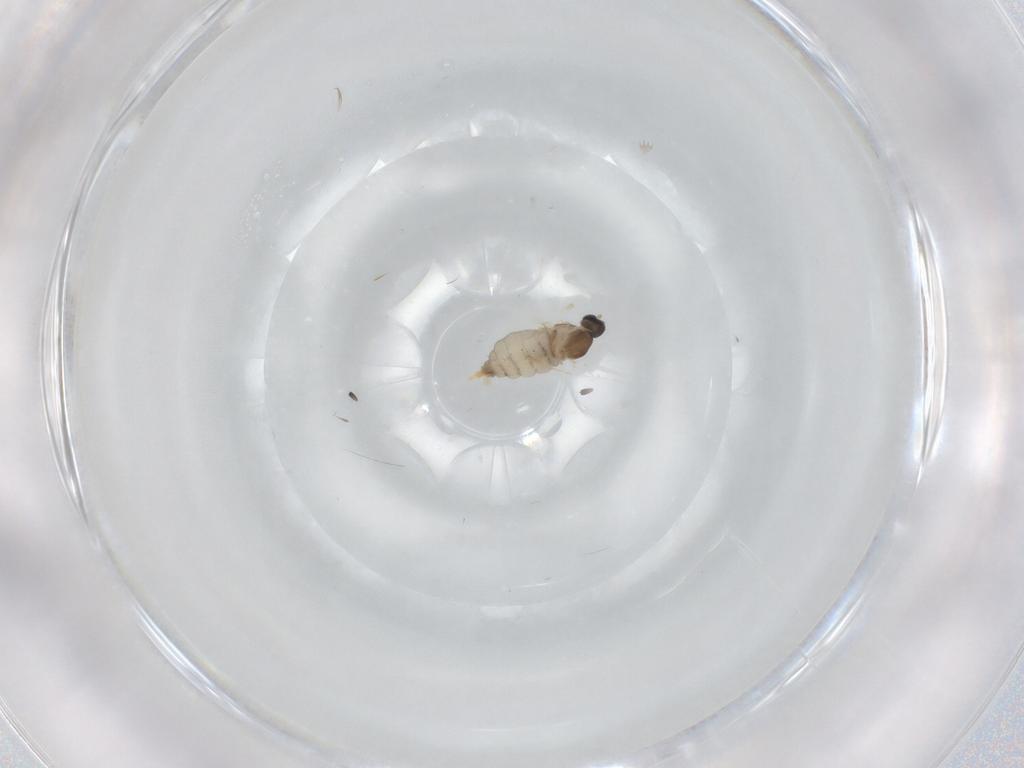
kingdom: Animalia
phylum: Arthropoda
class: Insecta
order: Diptera
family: Cecidomyiidae
